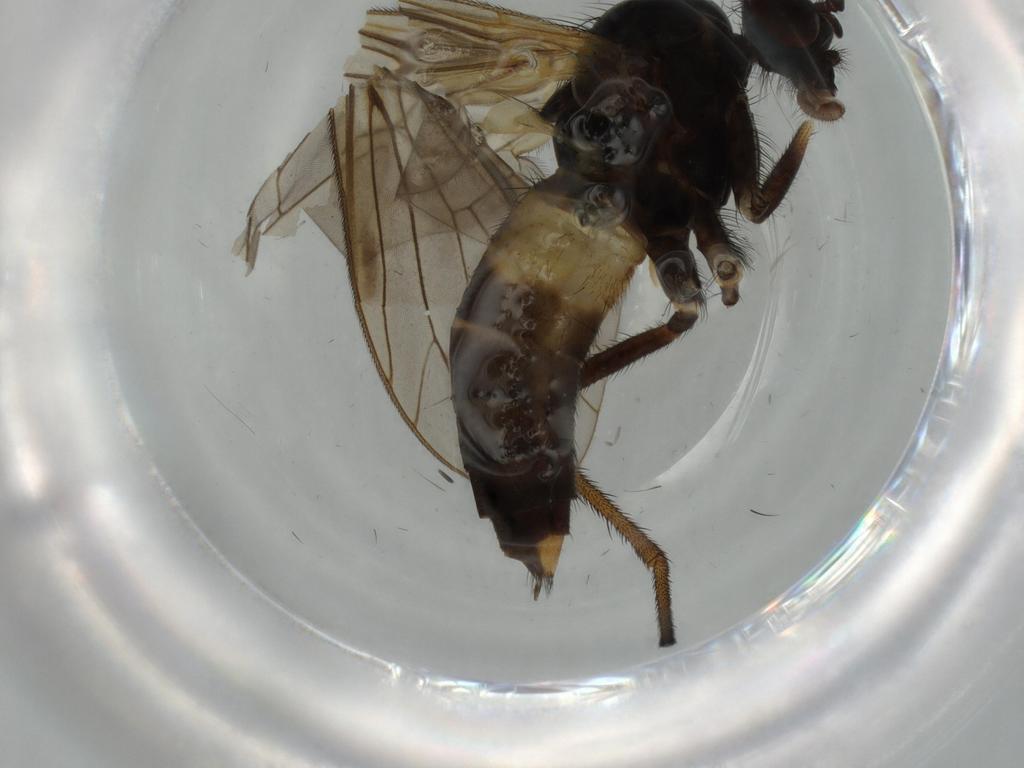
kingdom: Animalia
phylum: Arthropoda
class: Insecta
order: Diptera
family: Sciaridae
